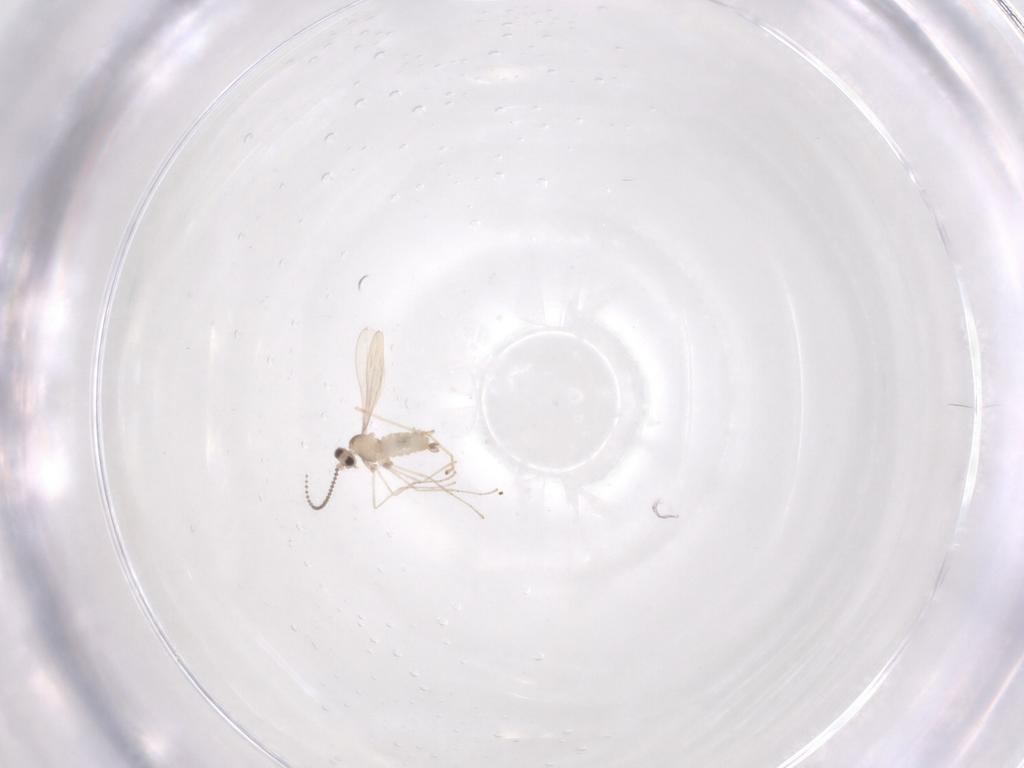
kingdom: Animalia
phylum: Arthropoda
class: Insecta
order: Diptera
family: Cecidomyiidae
